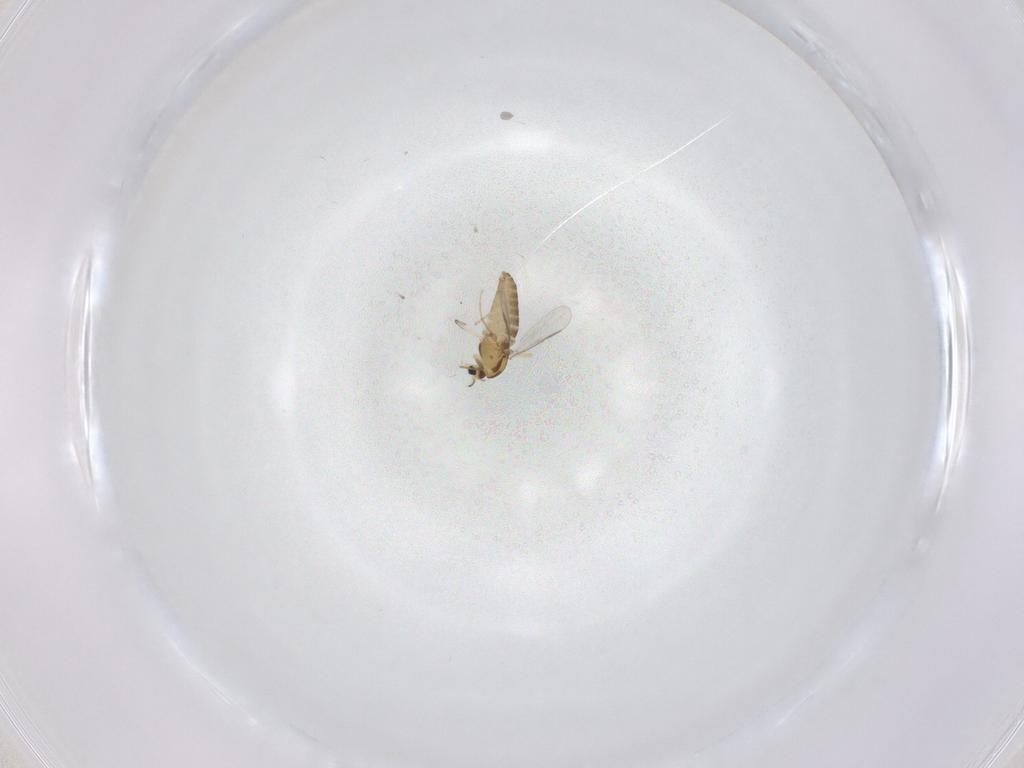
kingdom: Animalia
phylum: Arthropoda
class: Insecta
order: Diptera
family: Chironomidae
